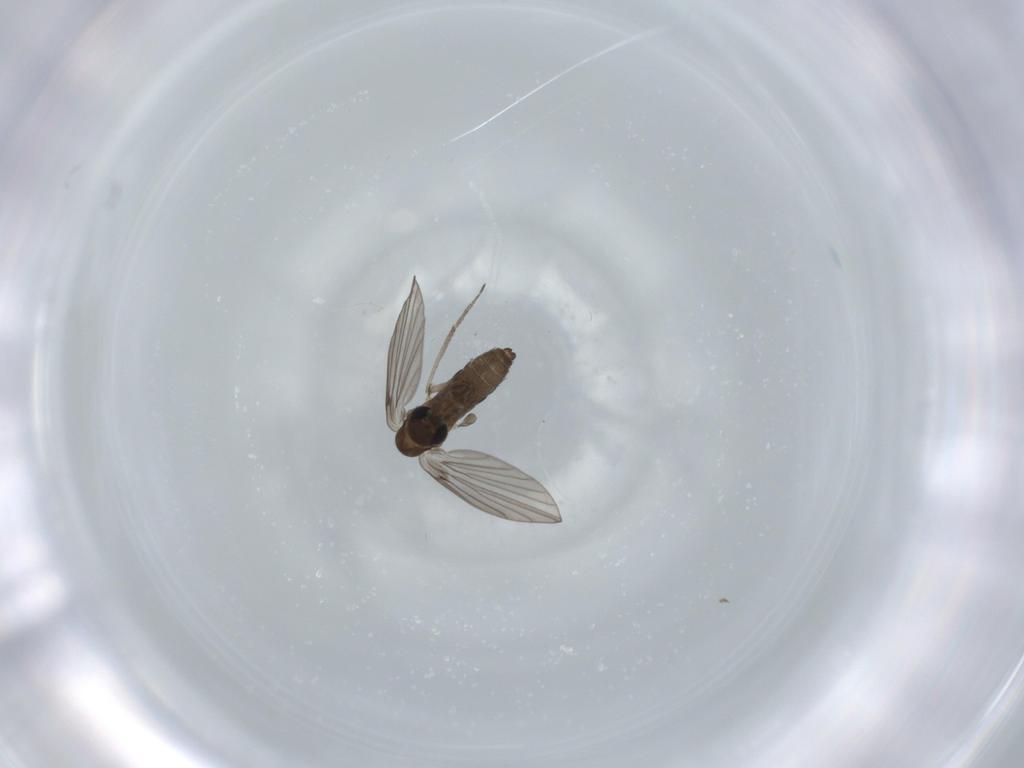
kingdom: Animalia
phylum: Arthropoda
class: Insecta
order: Diptera
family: Psychodidae
